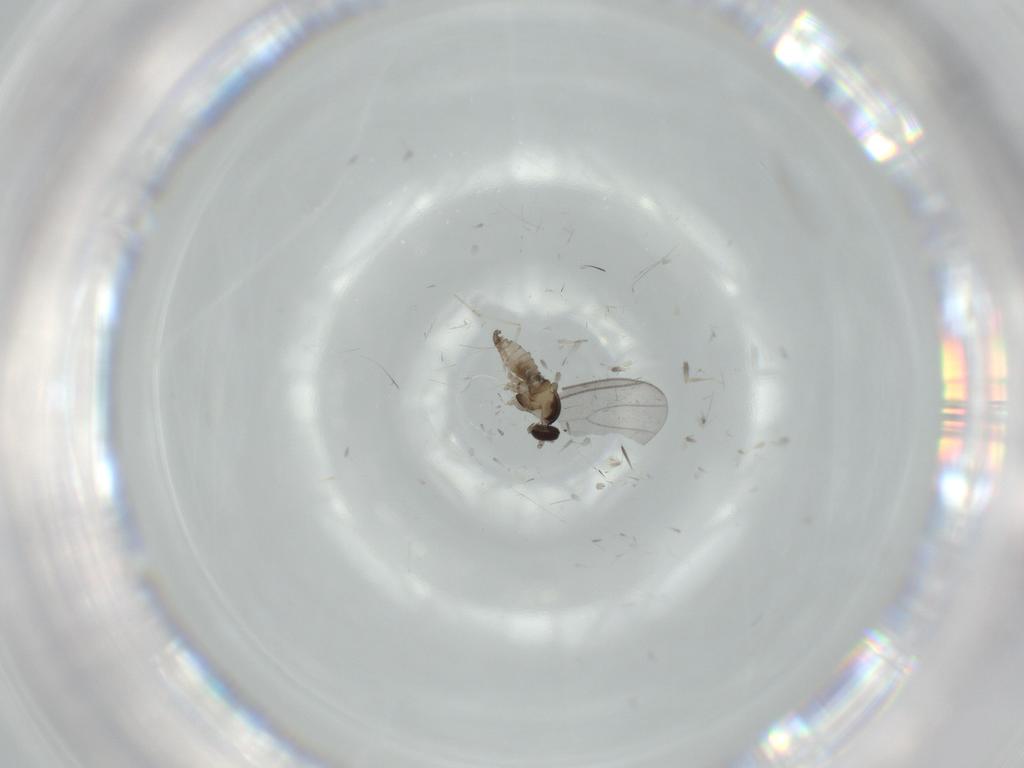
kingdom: Animalia
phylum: Arthropoda
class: Insecta
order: Diptera
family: Cecidomyiidae
